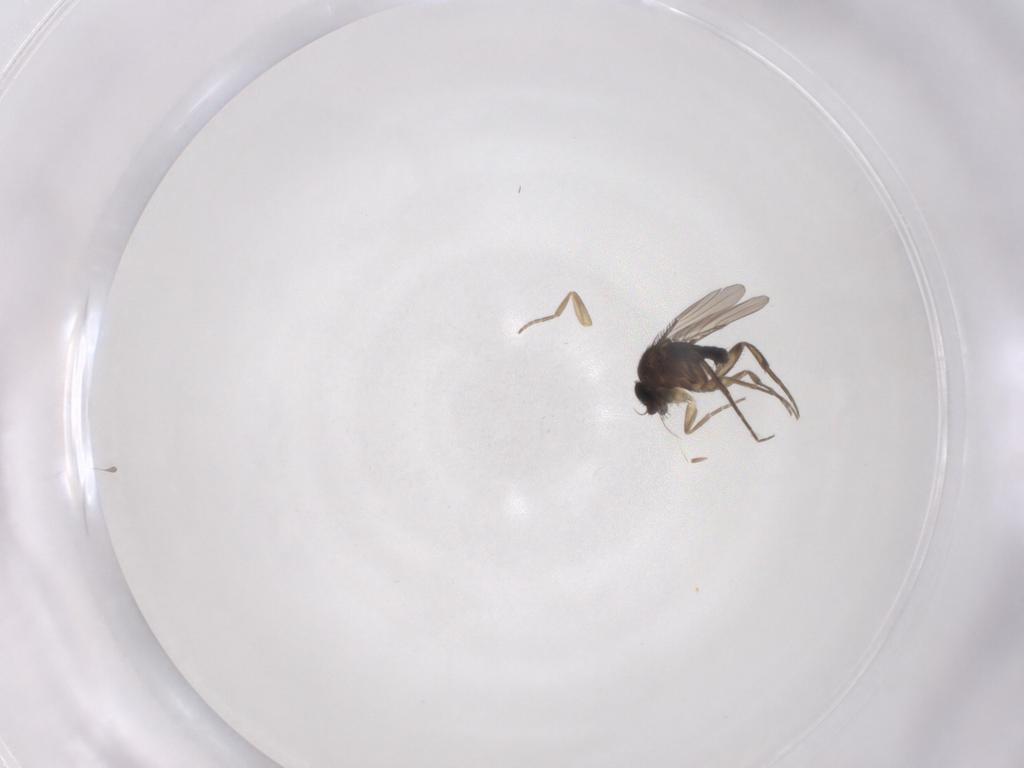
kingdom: Animalia
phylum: Arthropoda
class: Insecta
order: Diptera
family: Phoridae
